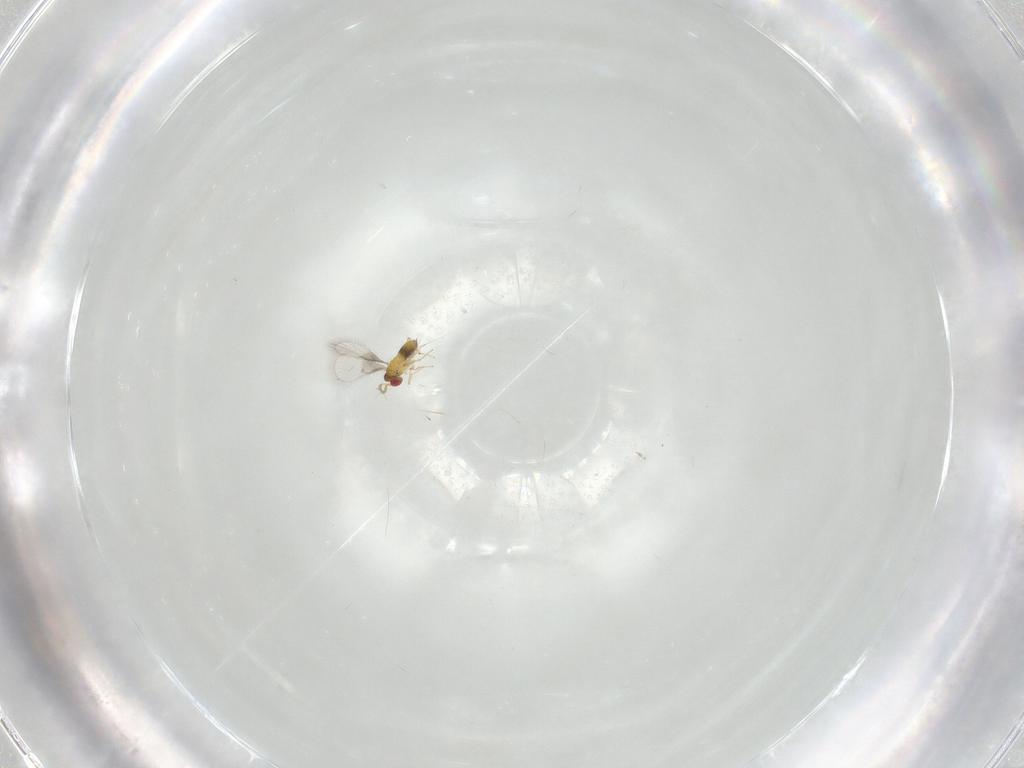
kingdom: Animalia
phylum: Arthropoda
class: Insecta
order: Hymenoptera
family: Trichogrammatidae
